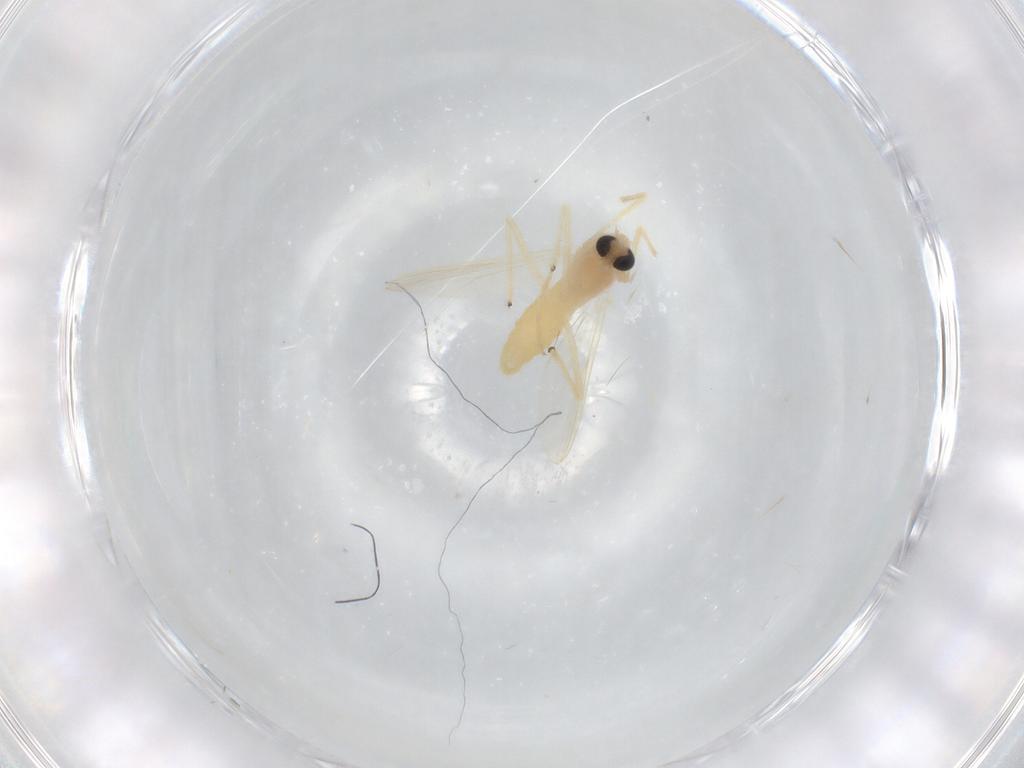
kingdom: Animalia
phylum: Arthropoda
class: Insecta
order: Diptera
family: Chironomidae
